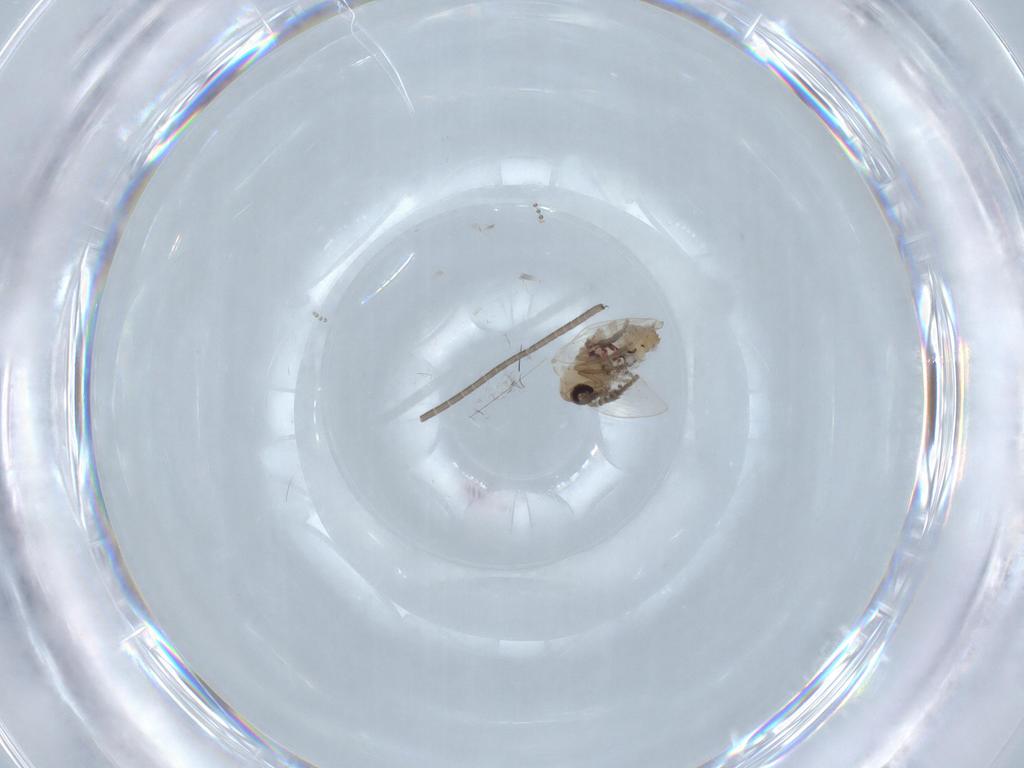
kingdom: Animalia
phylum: Arthropoda
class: Insecta
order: Diptera
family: Psychodidae
